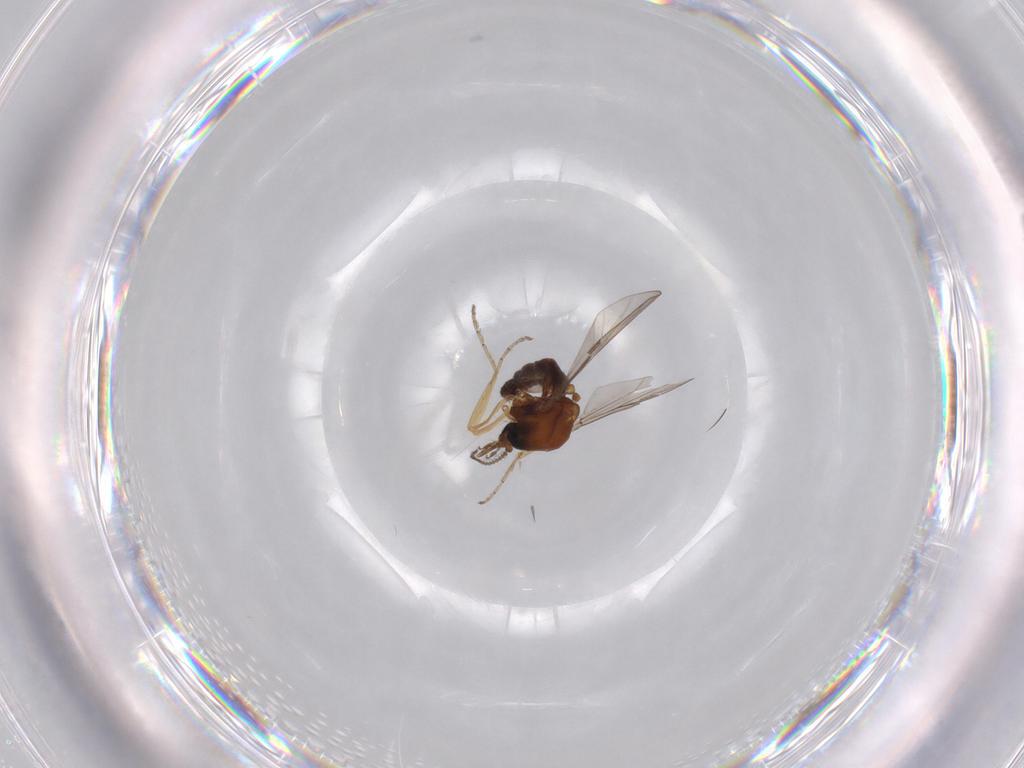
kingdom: Animalia
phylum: Arthropoda
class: Insecta
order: Diptera
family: Ceratopogonidae
